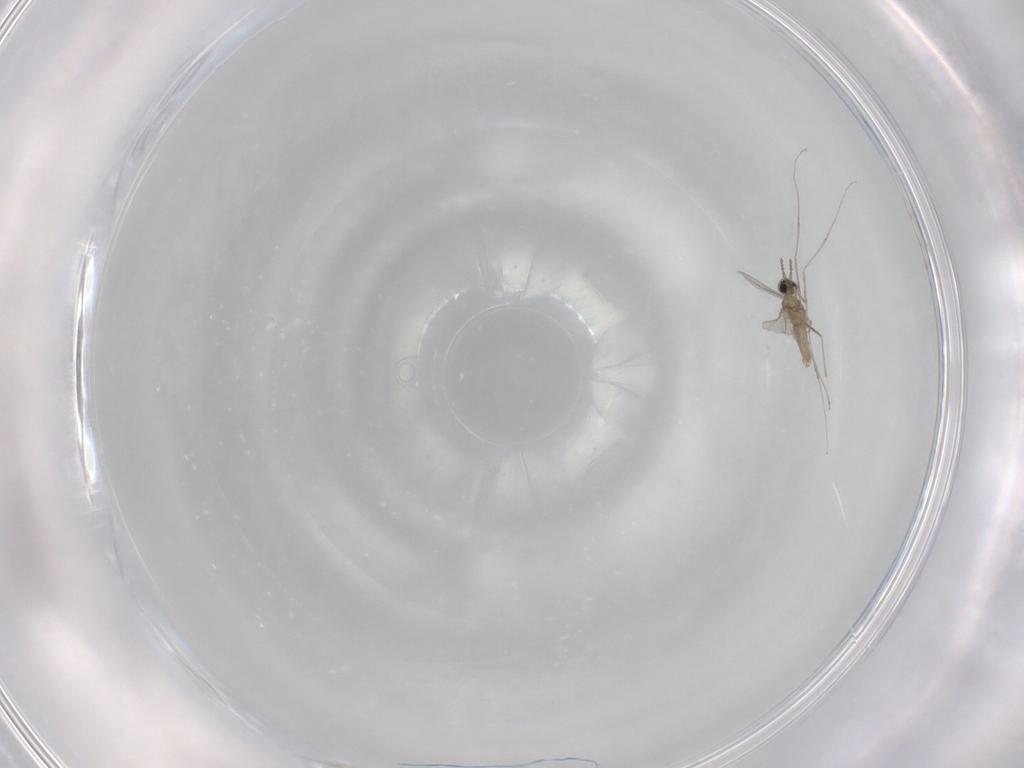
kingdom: Animalia
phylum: Arthropoda
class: Insecta
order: Diptera
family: Cecidomyiidae
